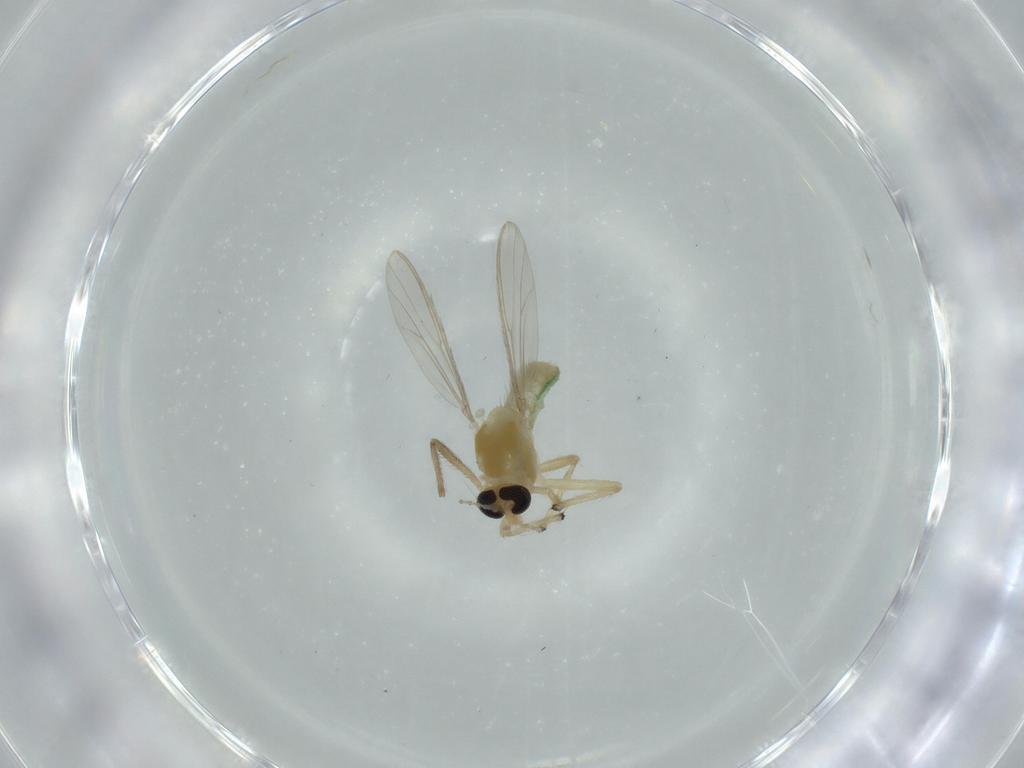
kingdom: Animalia
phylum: Arthropoda
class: Insecta
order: Diptera
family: Chironomidae
